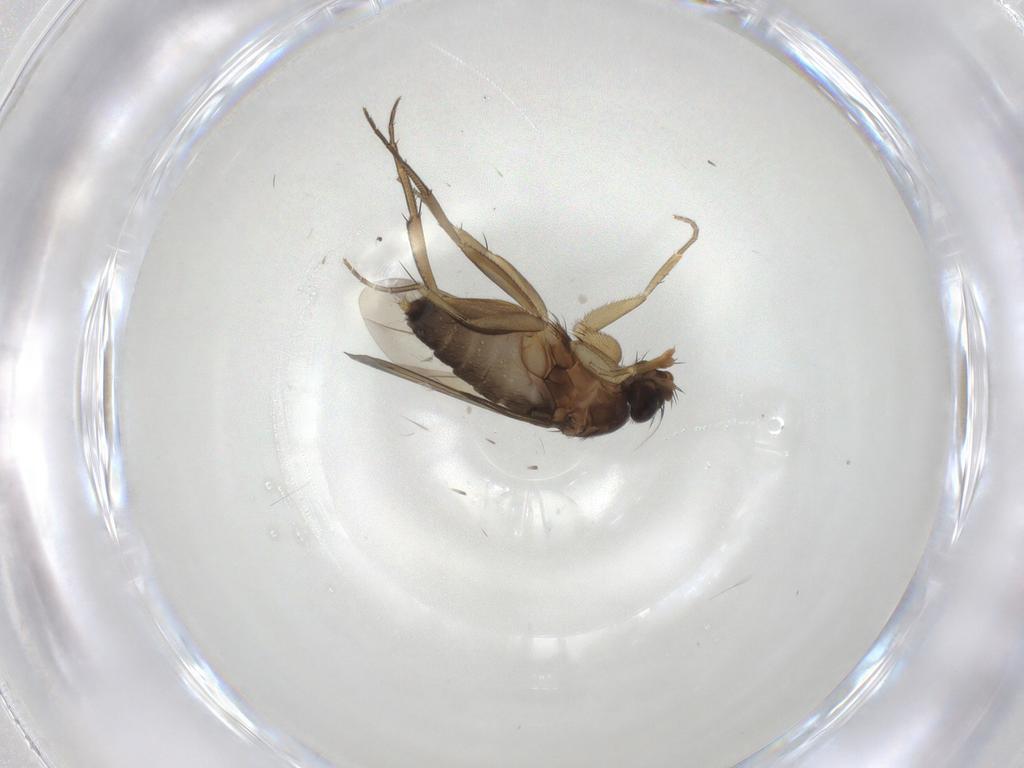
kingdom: Animalia
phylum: Arthropoda
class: Insecta
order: Diptera
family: Phoridae
